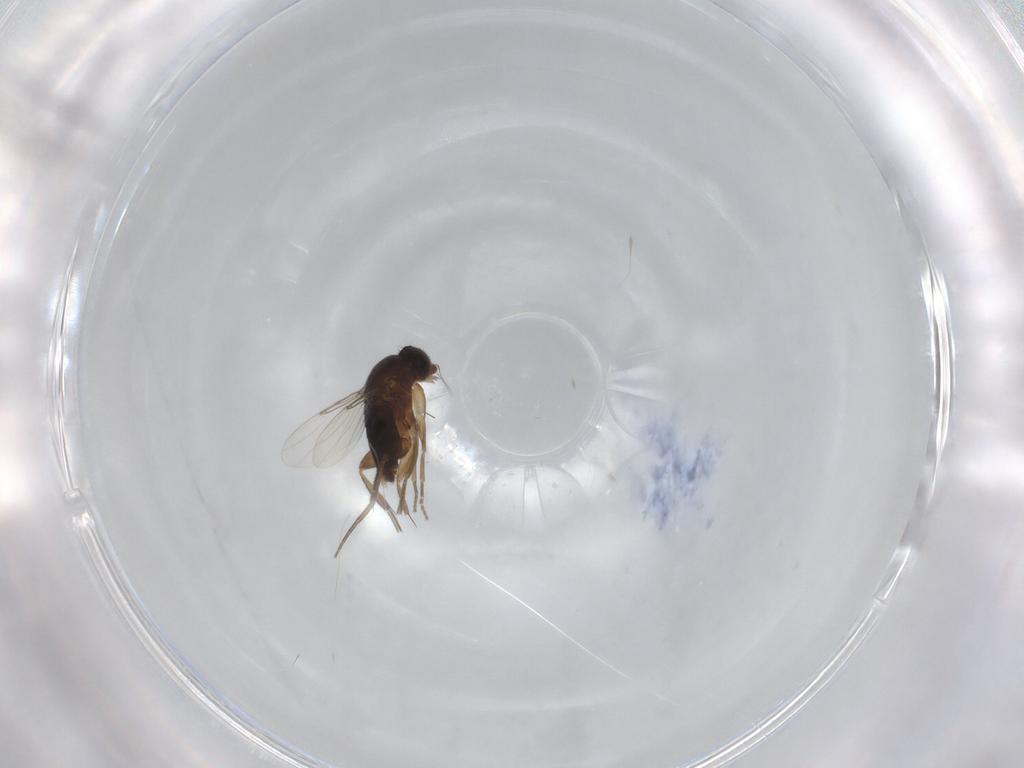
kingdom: Animalia
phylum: Arthropoda
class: Insecta
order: Diptera
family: Phoridae
